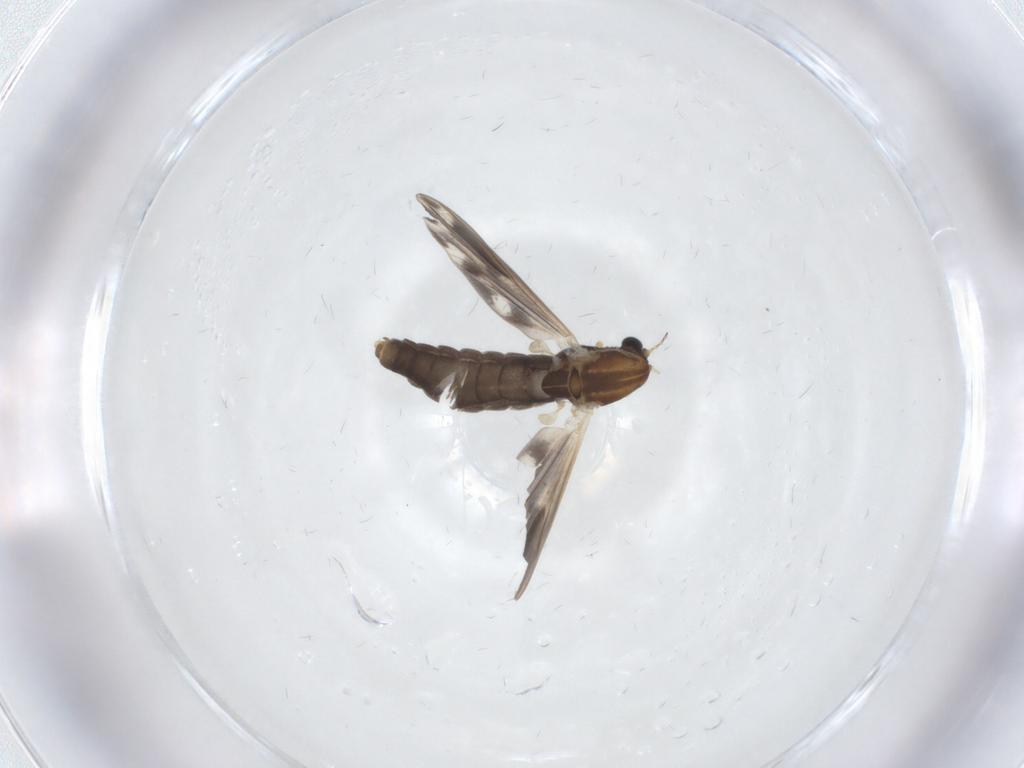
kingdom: Animalia
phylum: Arthropoda
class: Insecta
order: Diptera
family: Chironomidae
